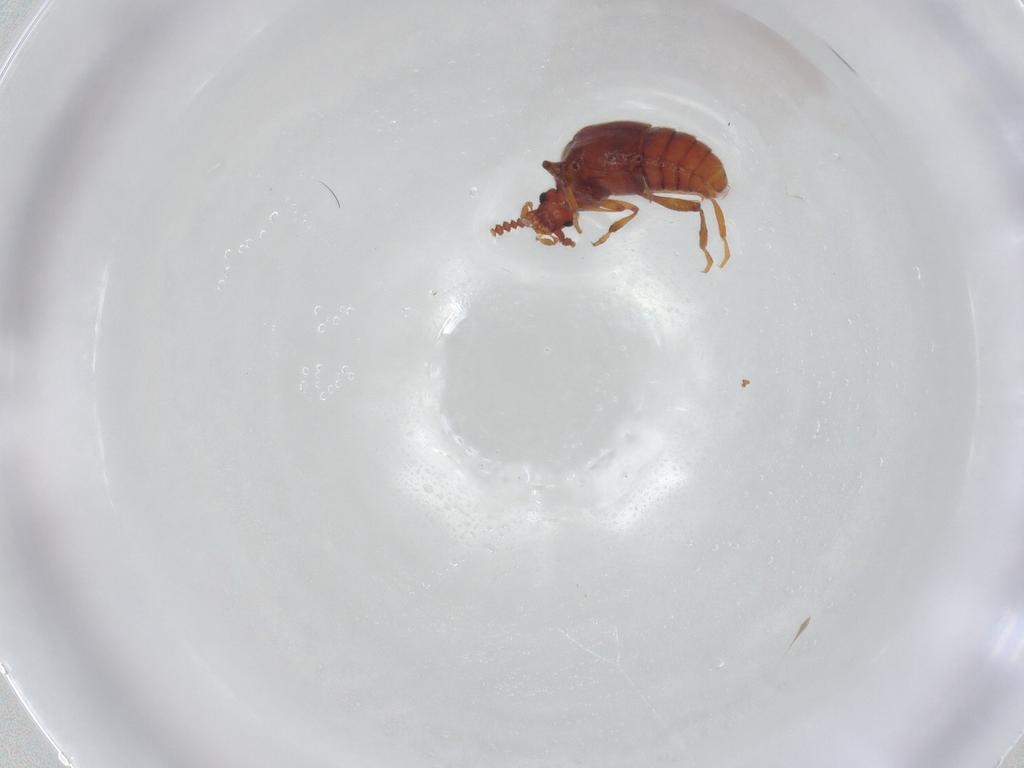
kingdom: Animalia
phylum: Arthropoda
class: Insecta
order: Coleoptera
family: Staphylinidae
